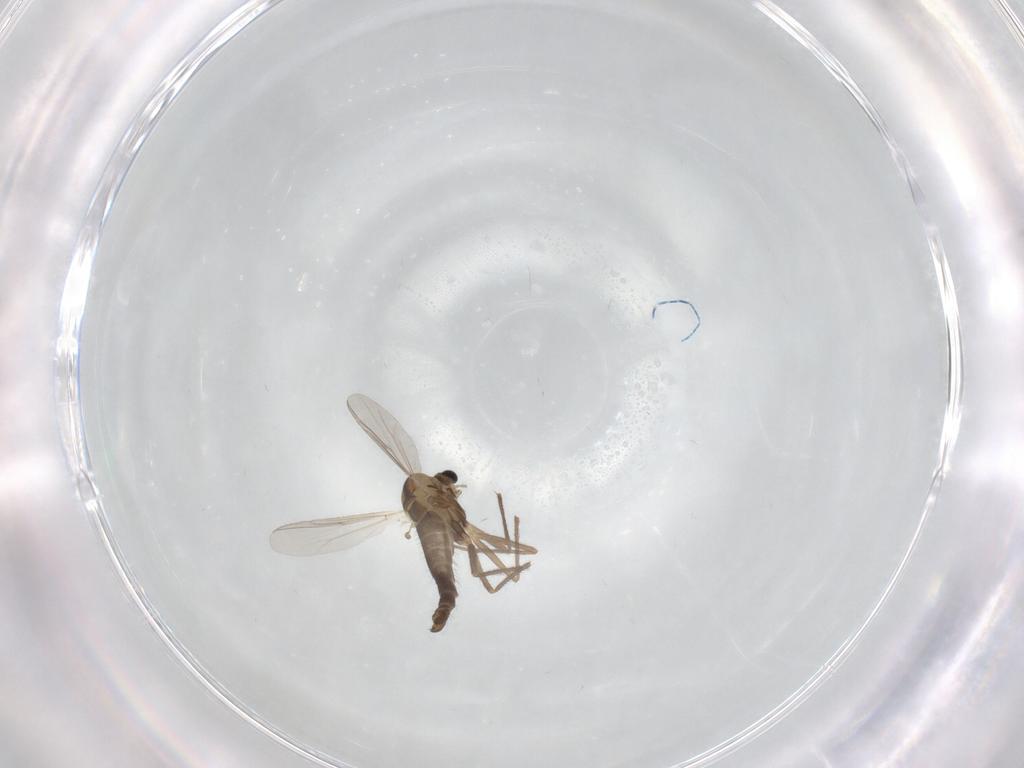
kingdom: Animalia
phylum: Arthropoda
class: Insecta
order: Diptera
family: Chironomidae
